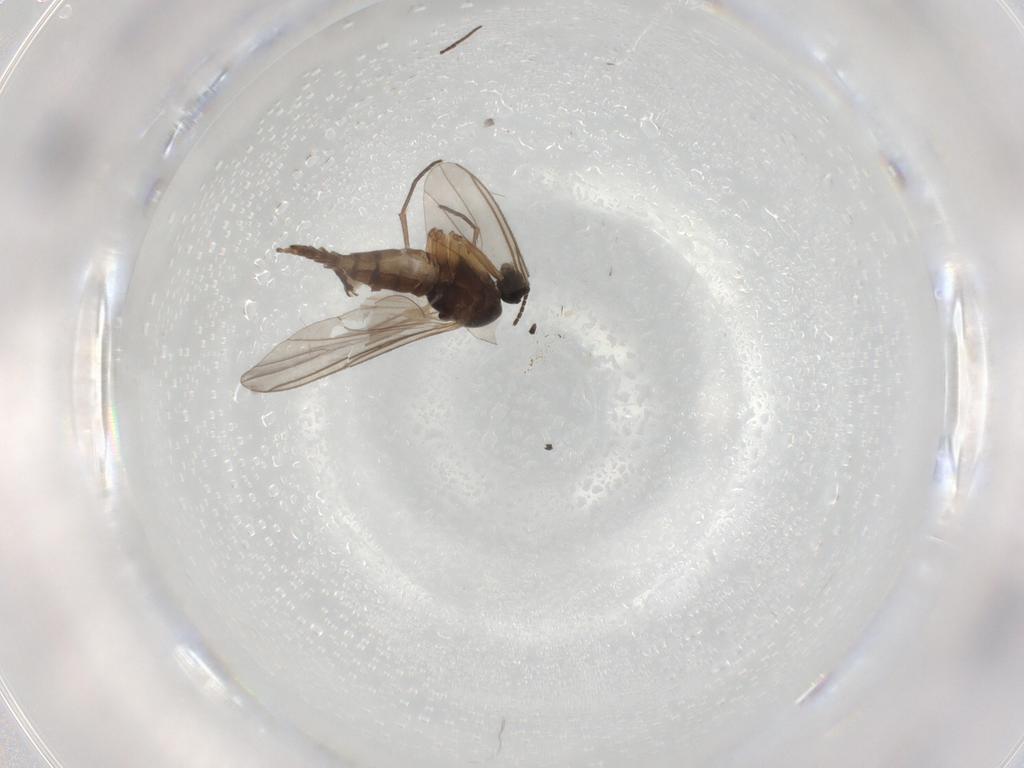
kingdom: Animalia
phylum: Arthropoda
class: Insecta
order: Diptera
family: Sciaridae
